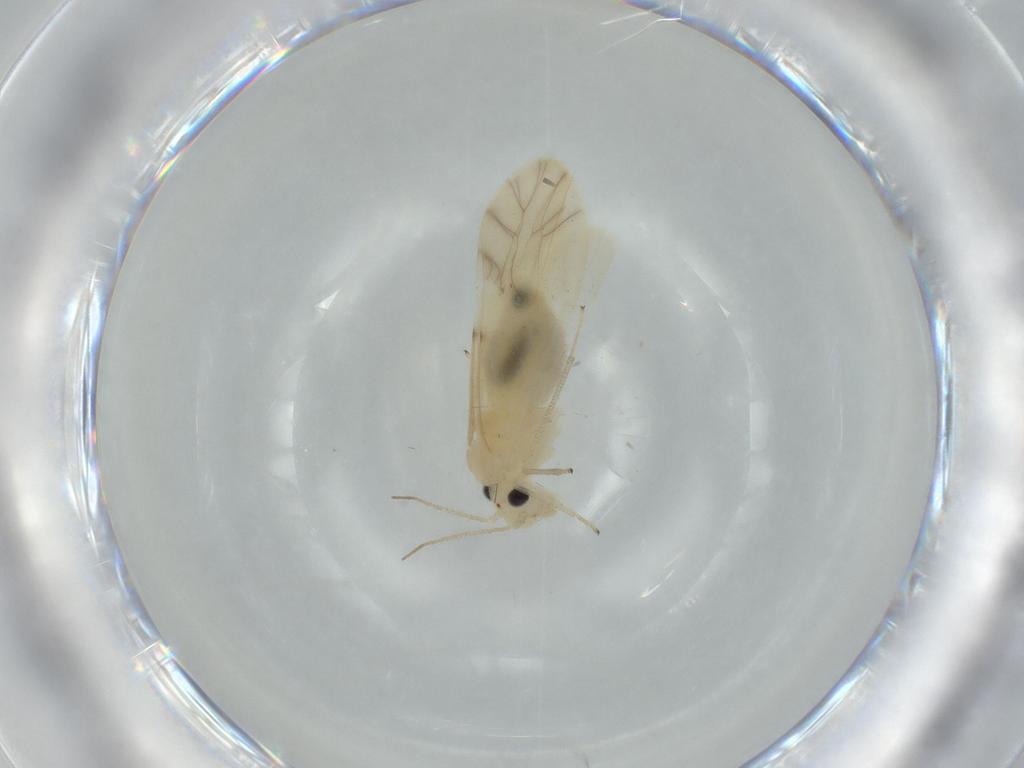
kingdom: Animalia
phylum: Arthropoda
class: Insecta
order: Psocodea
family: Caeciliusidae
